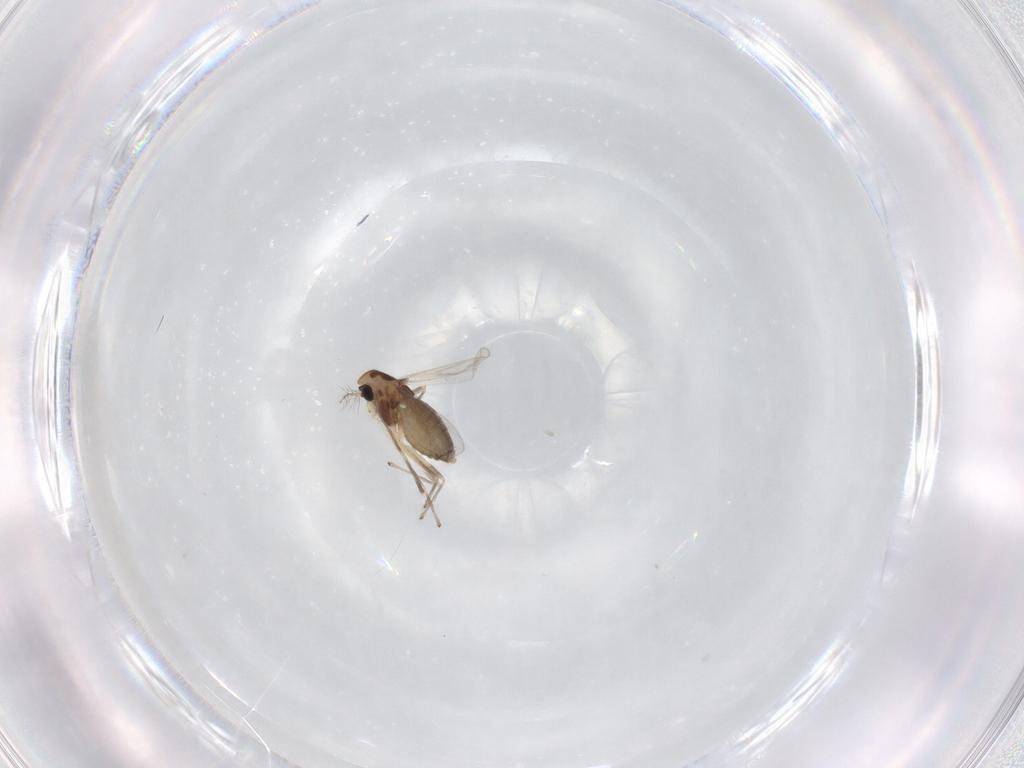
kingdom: Animalia
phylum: Arthropoda
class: Insecta
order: Diptera
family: Chironomidae
